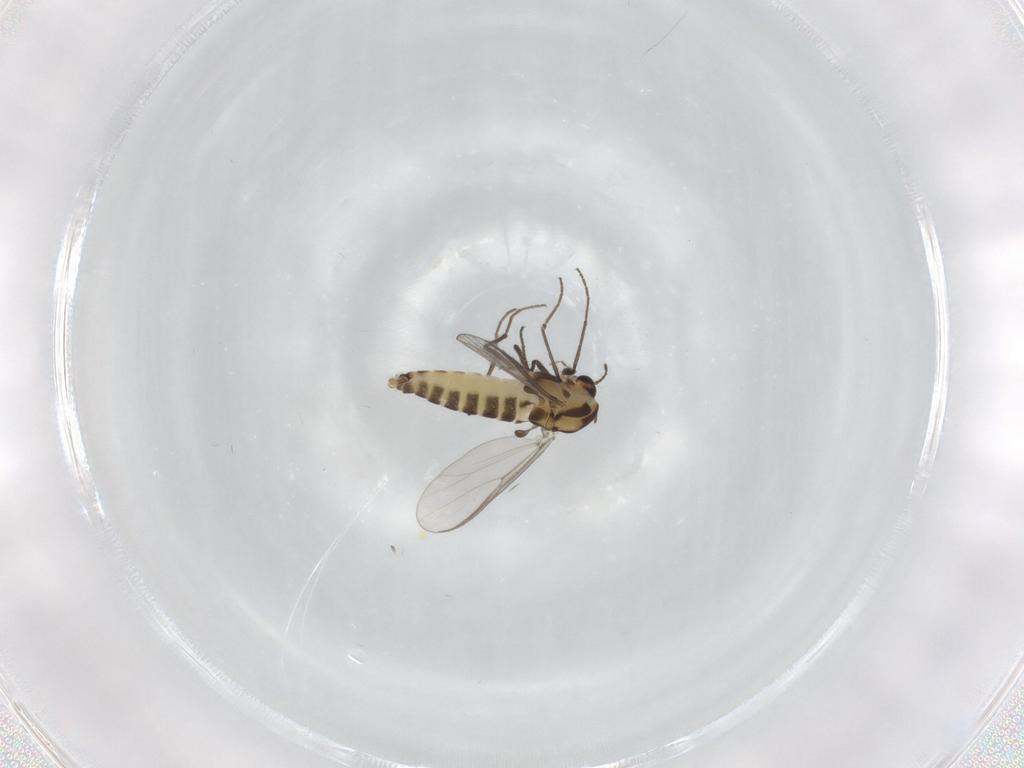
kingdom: Animalia
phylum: Arthropoda
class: Insecta
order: Diptera
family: Chironomidae
